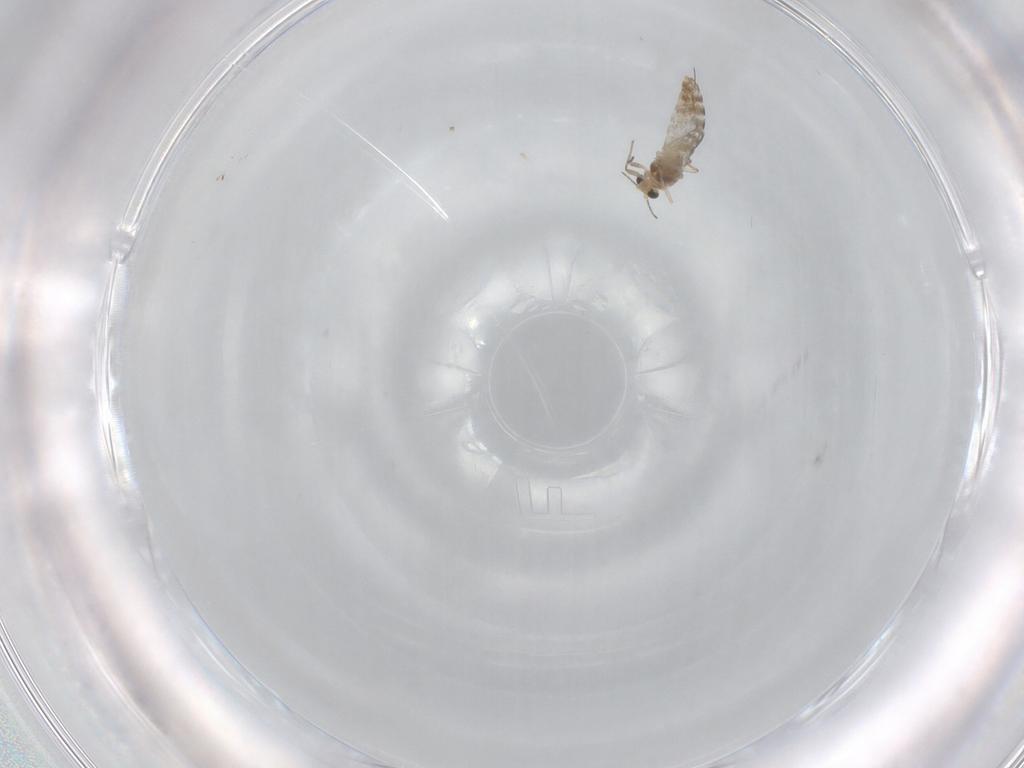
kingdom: Animalia
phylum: Arthropoda
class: Insecta
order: Diptera
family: Chironomidae
